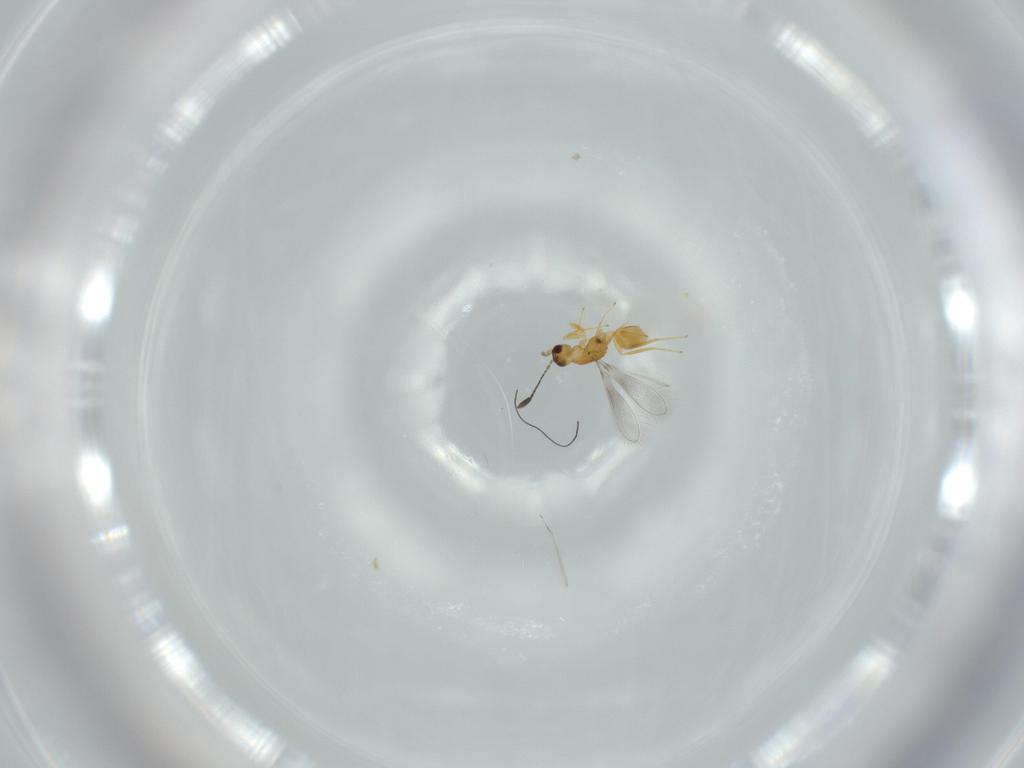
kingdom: Animalia
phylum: Arthropoda
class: Insecta
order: Hymenoptera
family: Mymaridae
